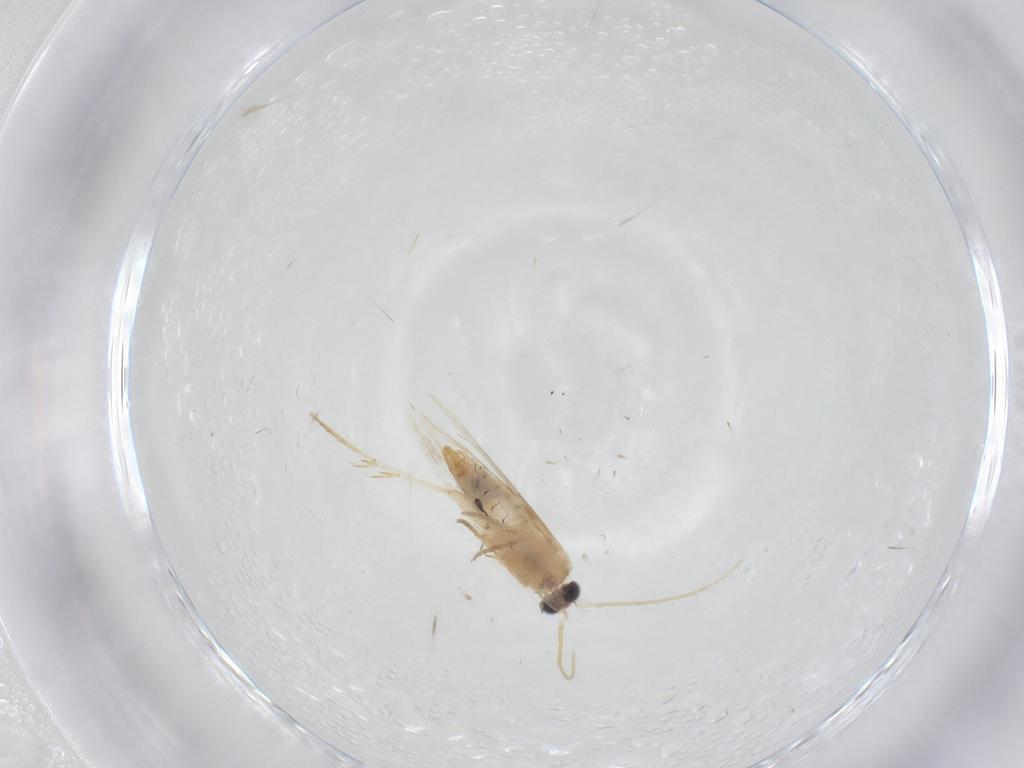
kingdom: Animalia
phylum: Arthropoda
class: Insecta
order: Lepidoptera
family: Nepticulidae
